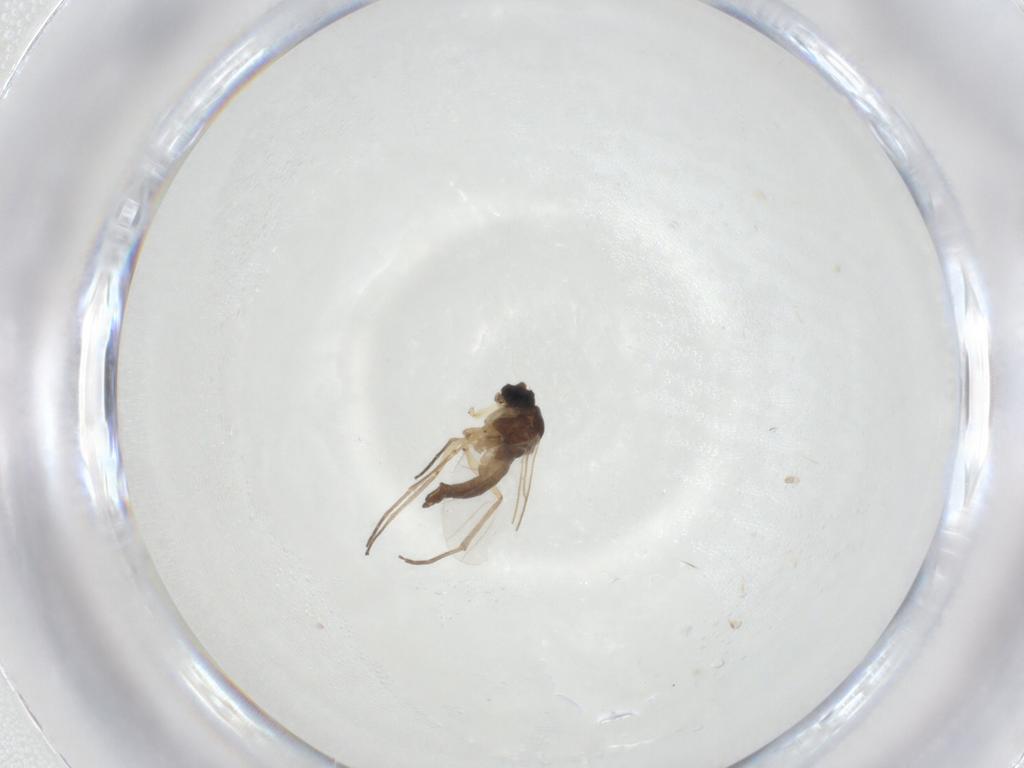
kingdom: Animalia
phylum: Arthropoda
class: Insecta
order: Diptera
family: Sciaridae
